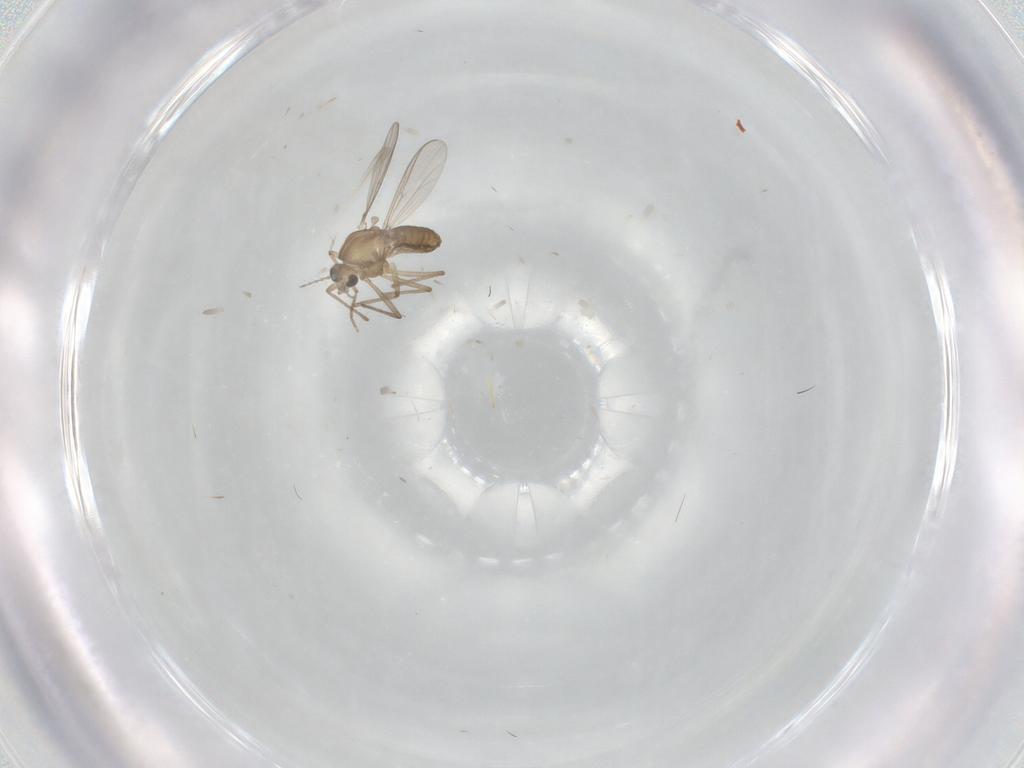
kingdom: Animalia
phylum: Arthropoda
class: Insecta
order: Diptera
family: Chironomidae
